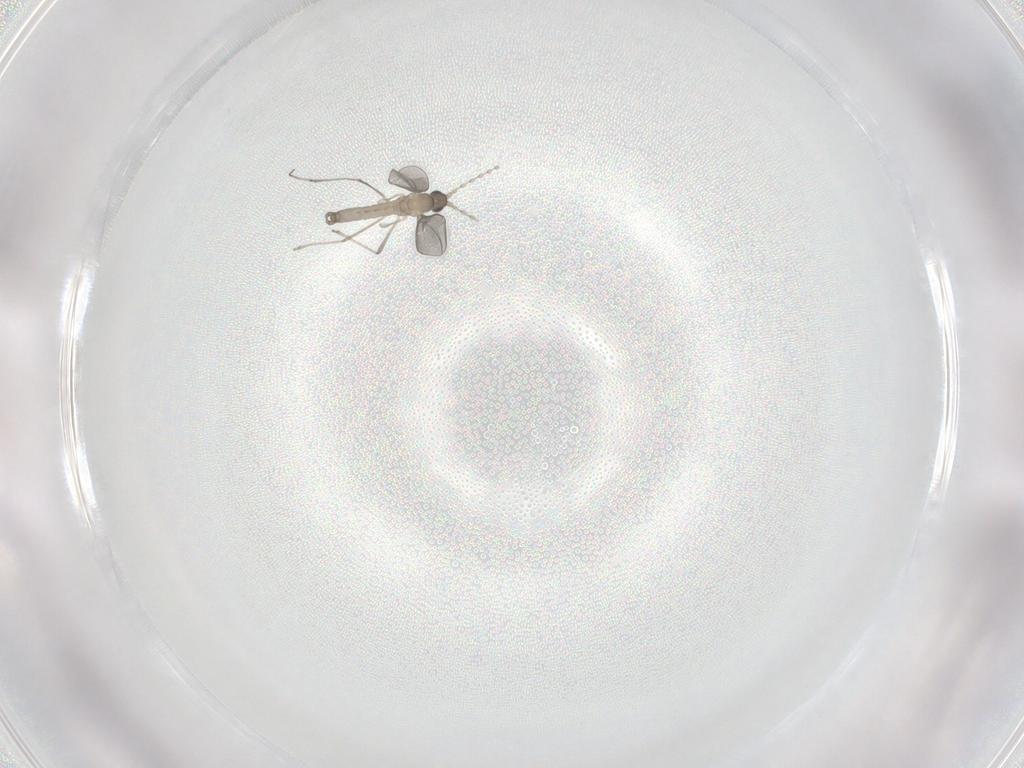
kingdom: Animalia
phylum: Arthropoda
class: Insecta
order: Diptera
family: Cecidomyiidae
